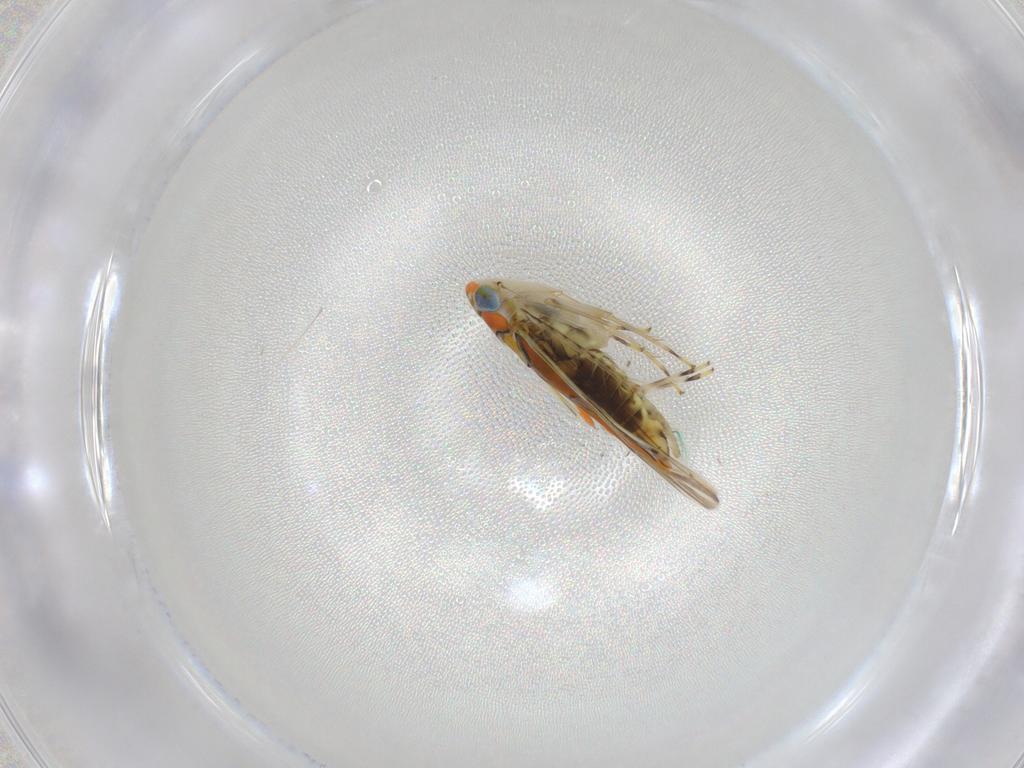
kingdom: Animalia
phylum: Arthropoda
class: Insecta
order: Hemiptera
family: Cicadellidae
